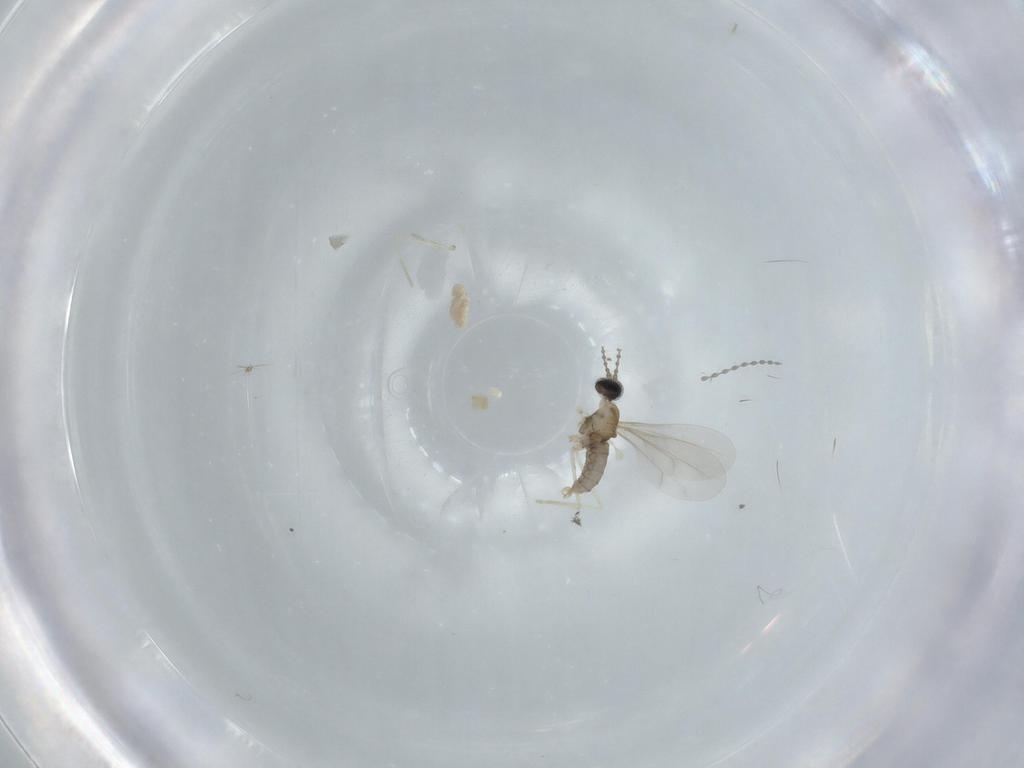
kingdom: Animalia
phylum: Arthropoda
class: Insecta
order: Diptera
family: Cecidomyiidae
